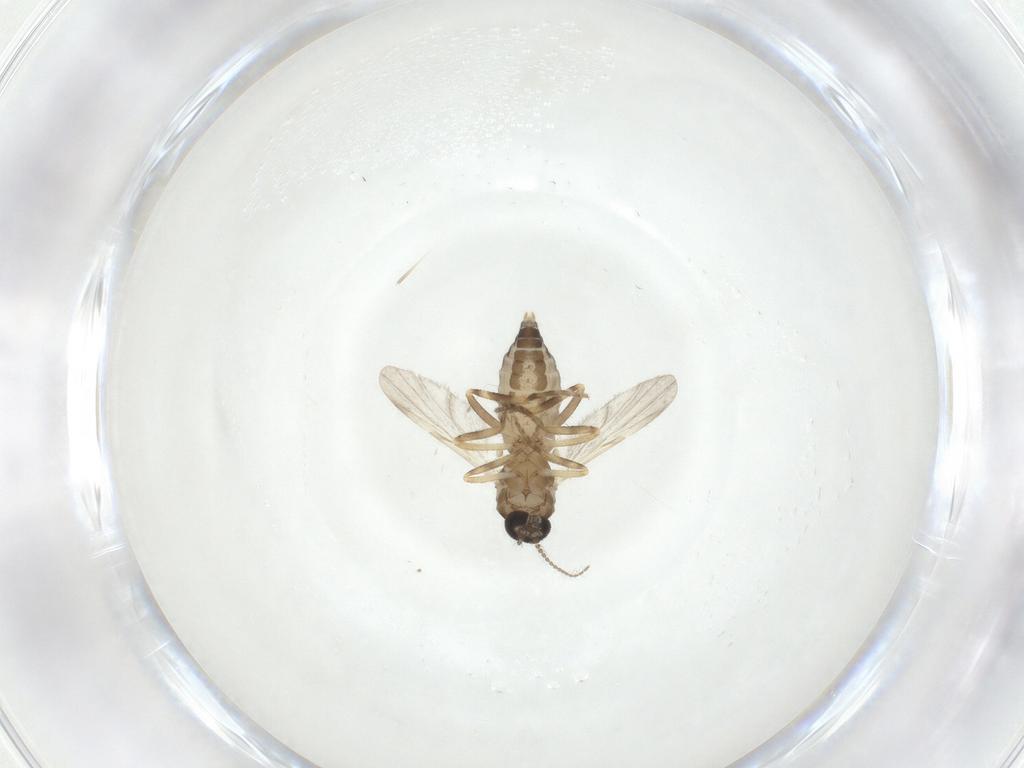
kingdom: Animalia
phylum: Arthropoda
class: Insecta
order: Diptera
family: Ceratopogonidae
